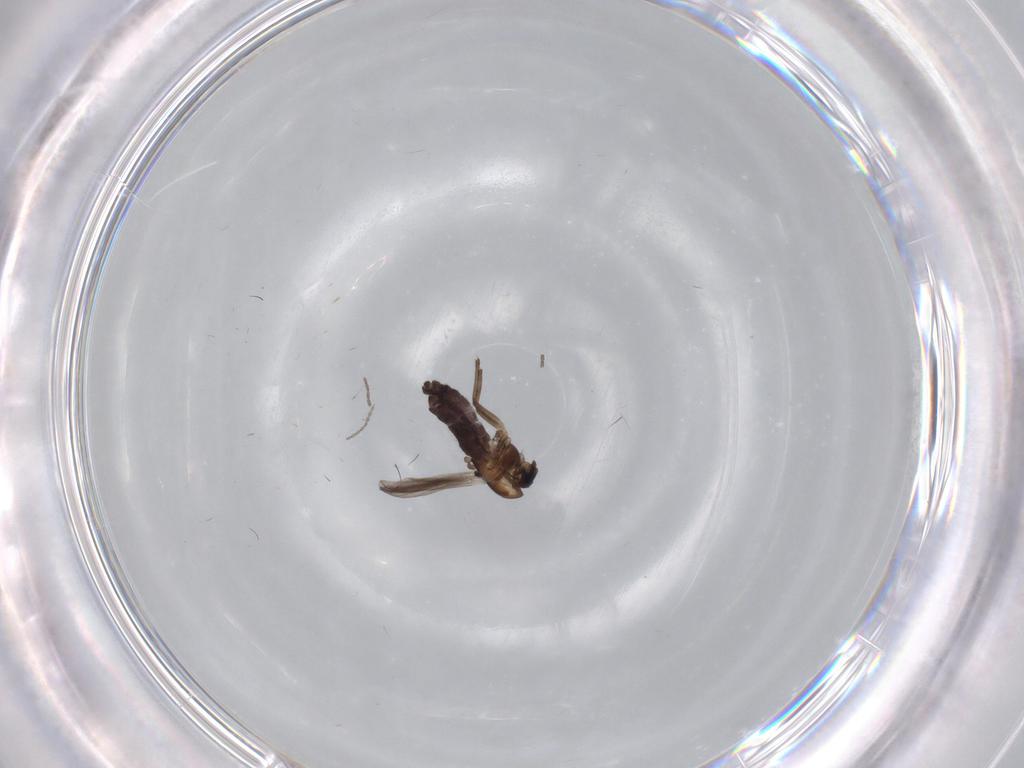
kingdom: Animalia
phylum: Arthropoda
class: Insecta
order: Diptera
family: Chironomidae
